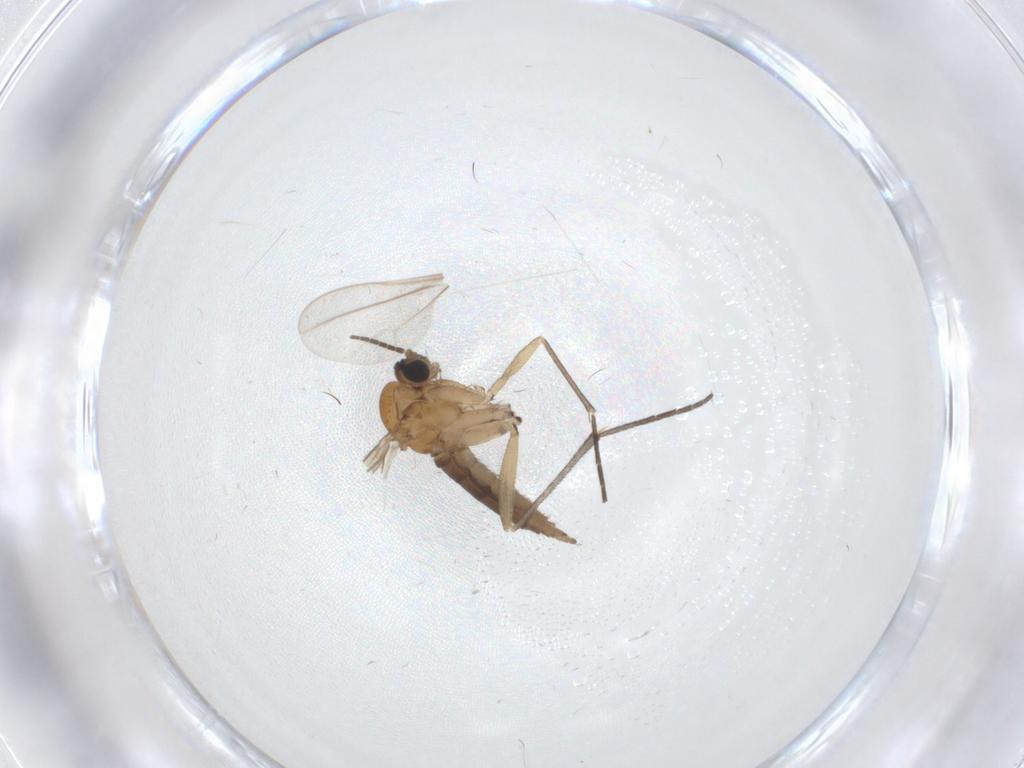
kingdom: Animalia
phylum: Arthropoda
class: Insecta
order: Diptera
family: Sciaridae
